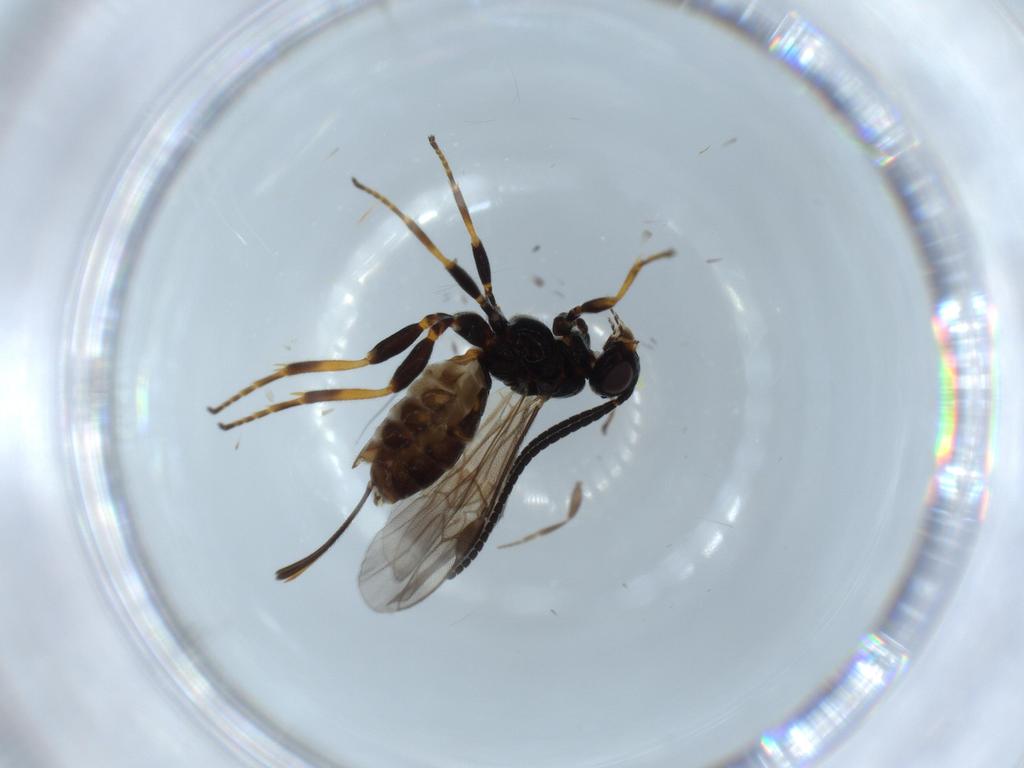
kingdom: Animalia
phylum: Arthropoda
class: Insecta
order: Hymenoptera
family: Braconidae
